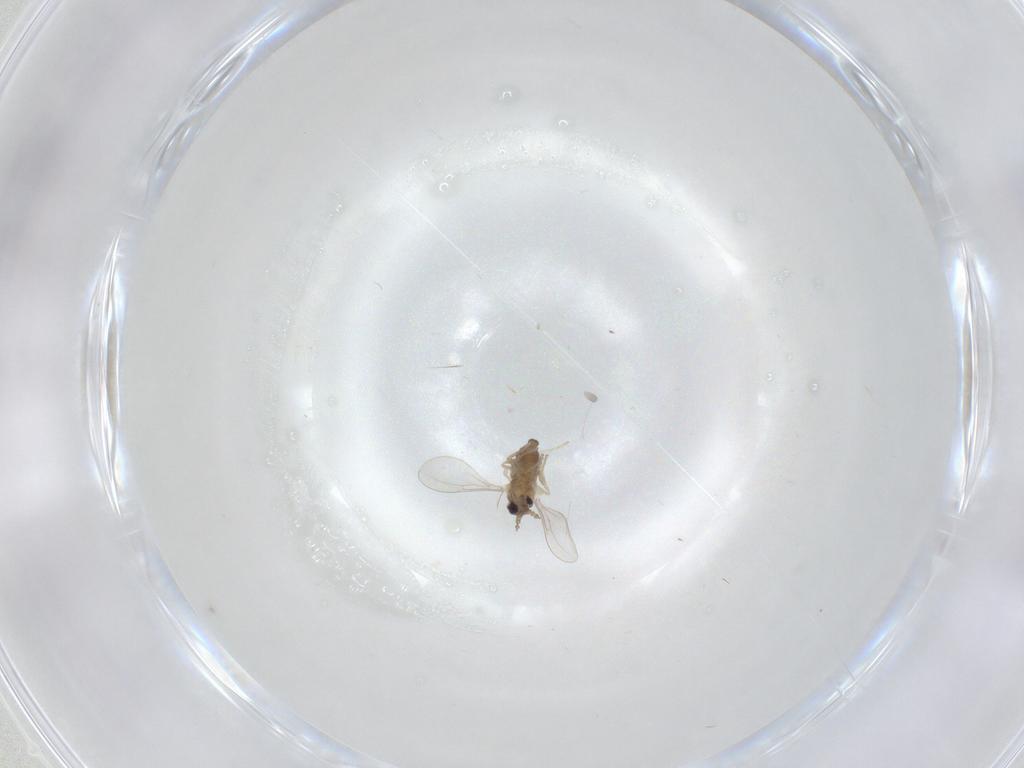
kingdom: Animalia
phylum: Arthropoda
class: Insecta
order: Diptera
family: Cecidomyiidae
